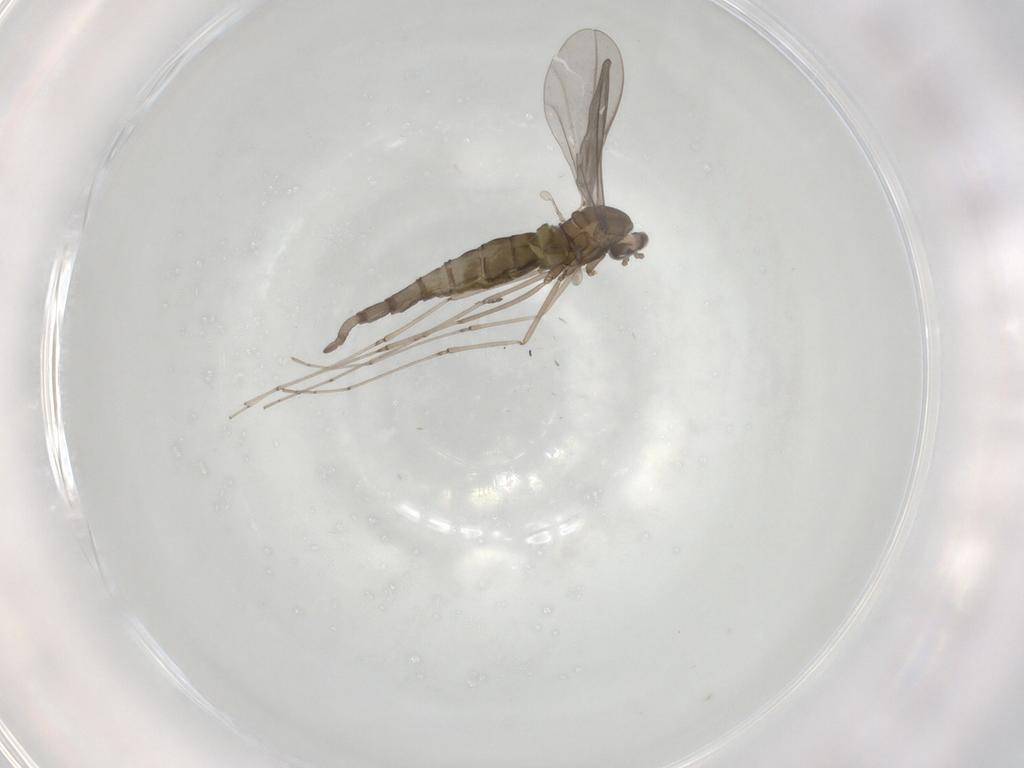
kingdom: Animalia
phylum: Arthropoda
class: Insecta
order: Diptera
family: Cecidomyiidae
